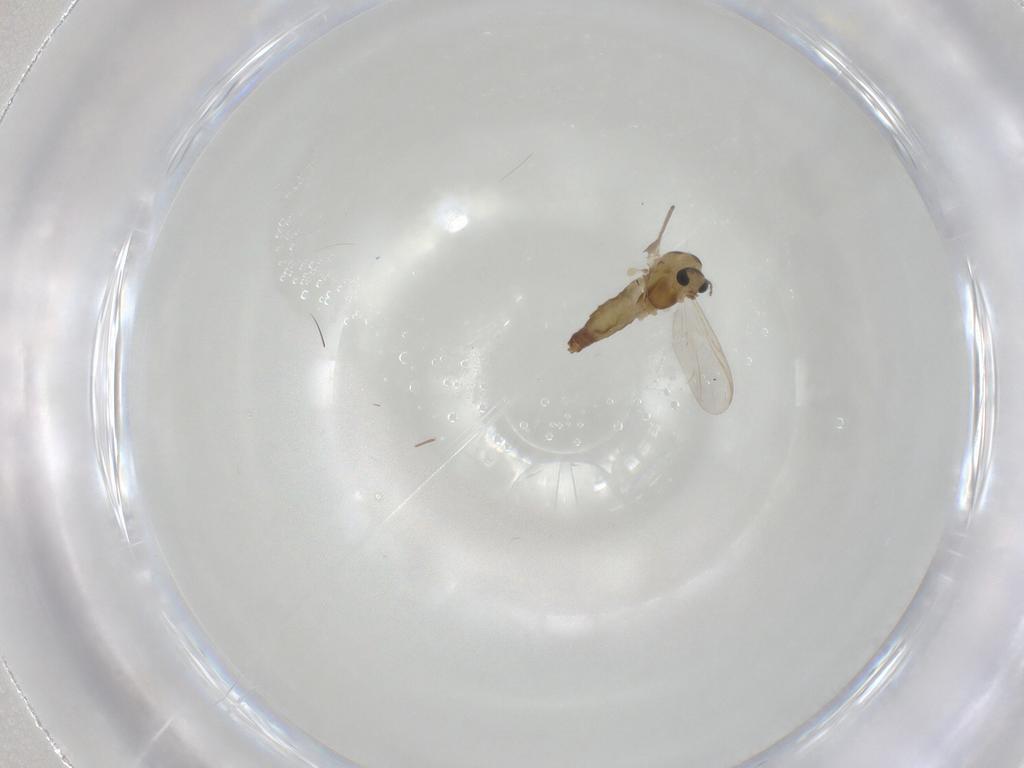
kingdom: Animalia
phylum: Arthropoda
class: Insecta
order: Diptera
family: Chironomidae
